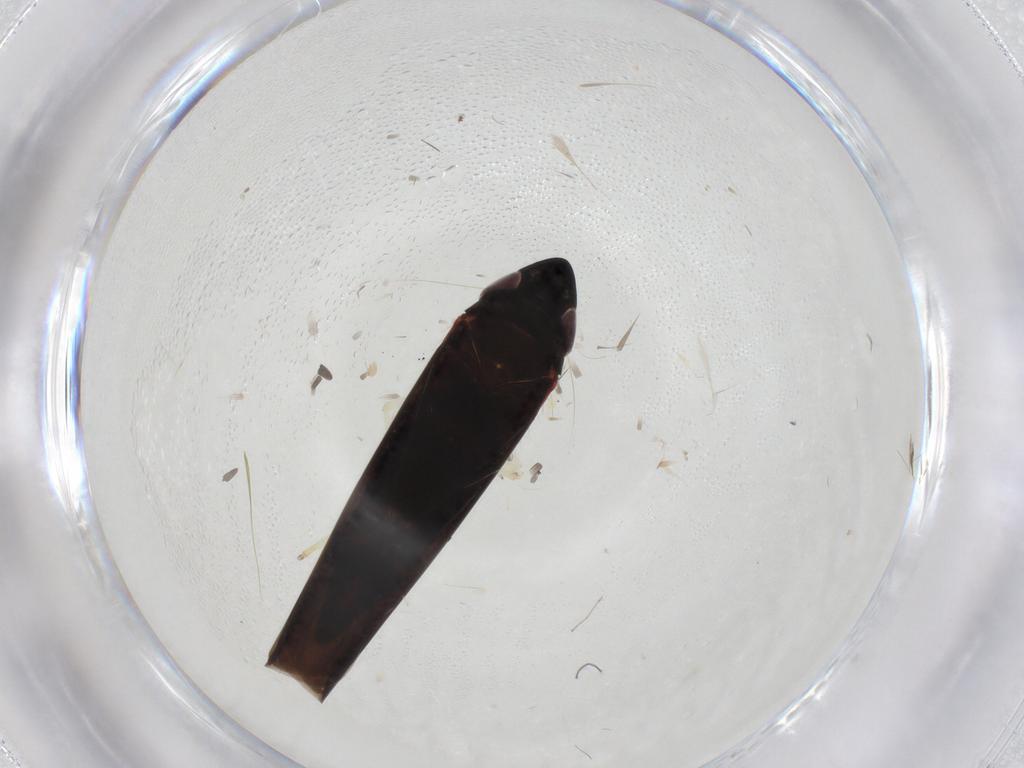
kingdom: Animalia
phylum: Arthropoda
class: Insecta
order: Hemiptera
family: Cicadellidae
